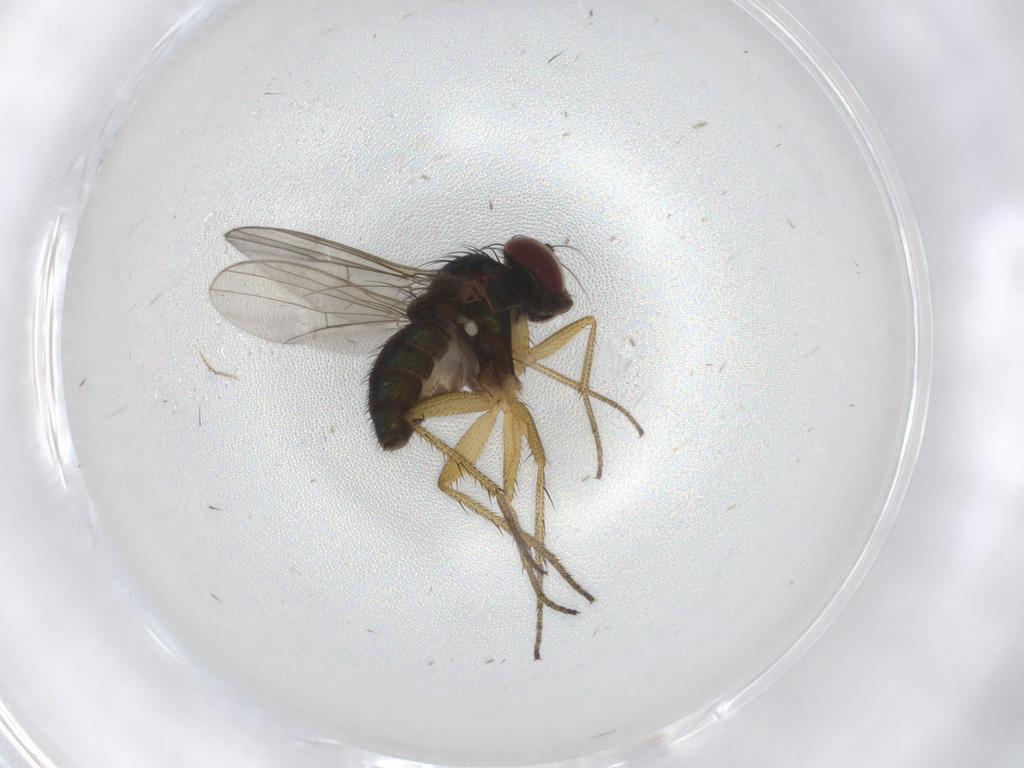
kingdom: Animalia
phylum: Arthropoda
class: Insecta
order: Diptera
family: Dolichopodidae
